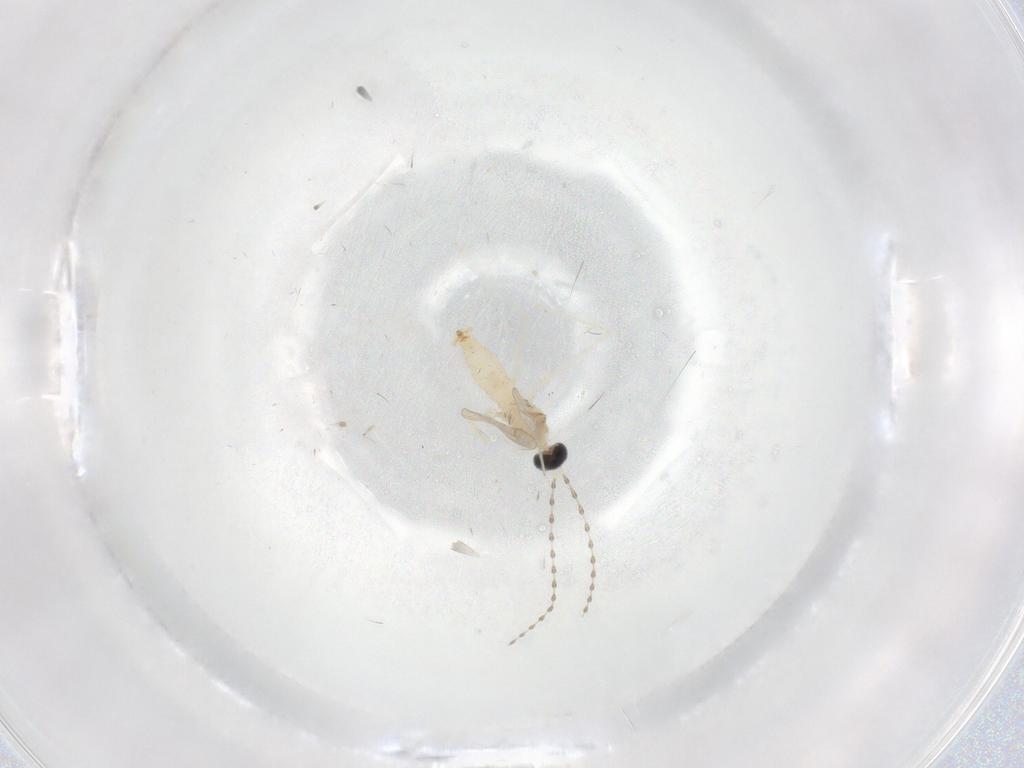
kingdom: Animalia
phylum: Arthropoda
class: Insecta
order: Diptera
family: Cecidomyiidae
